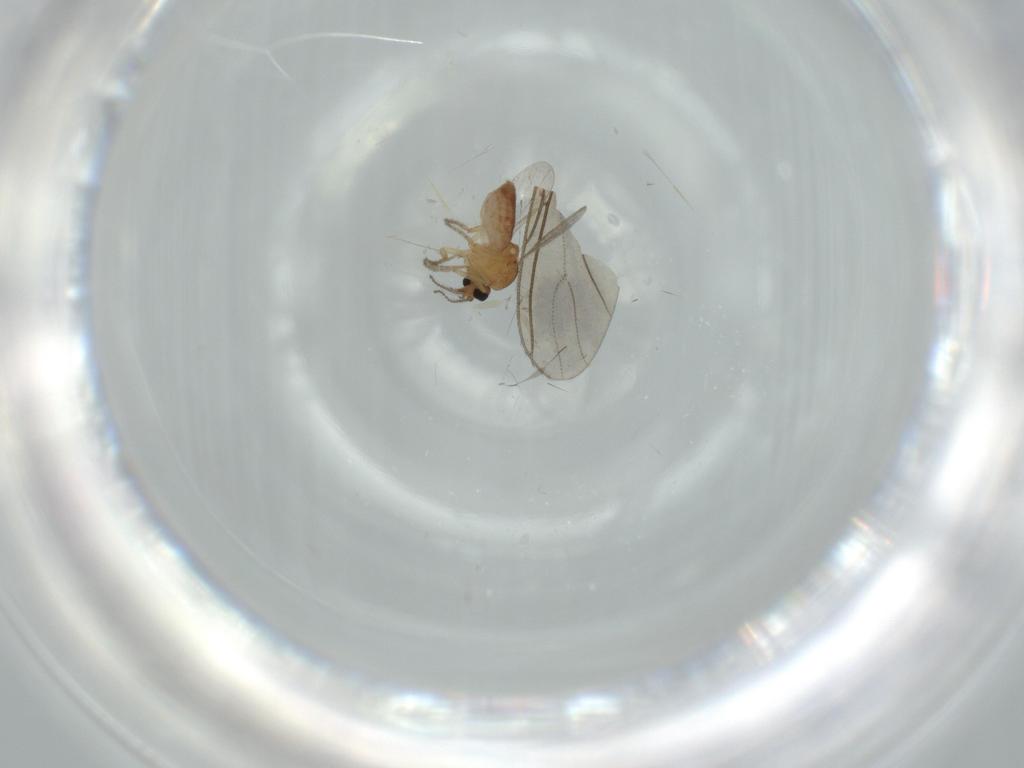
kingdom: Animalia
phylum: Arthropoda
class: Insecta
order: Diptera
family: Ceratopogonidae
